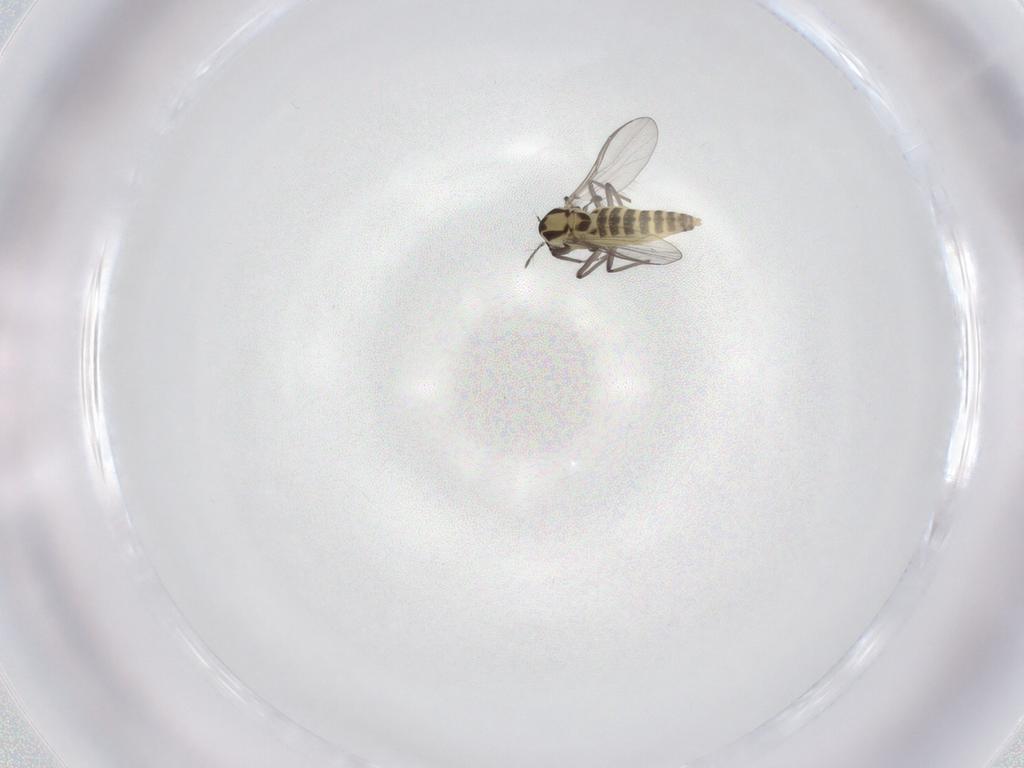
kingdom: Animalia
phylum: Arthropoda
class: Insecta
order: Diptera
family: Chironomidae
